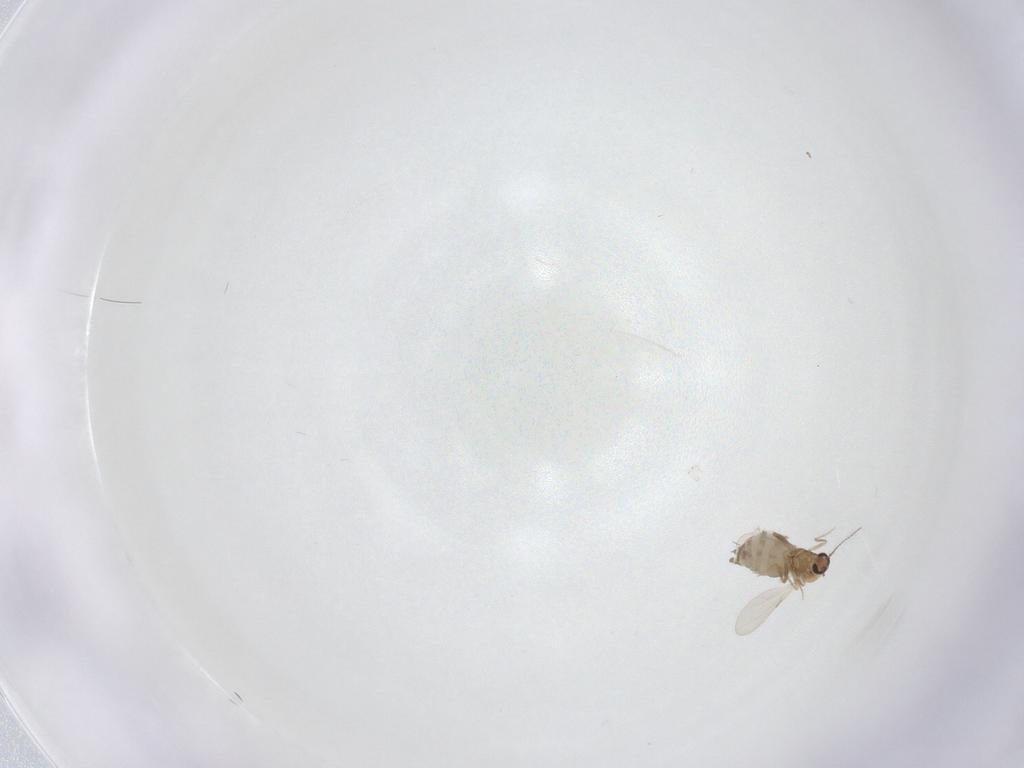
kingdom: Animalia
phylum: Arthropoda
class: Insecta
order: Diptera
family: Ceratopogonidae
